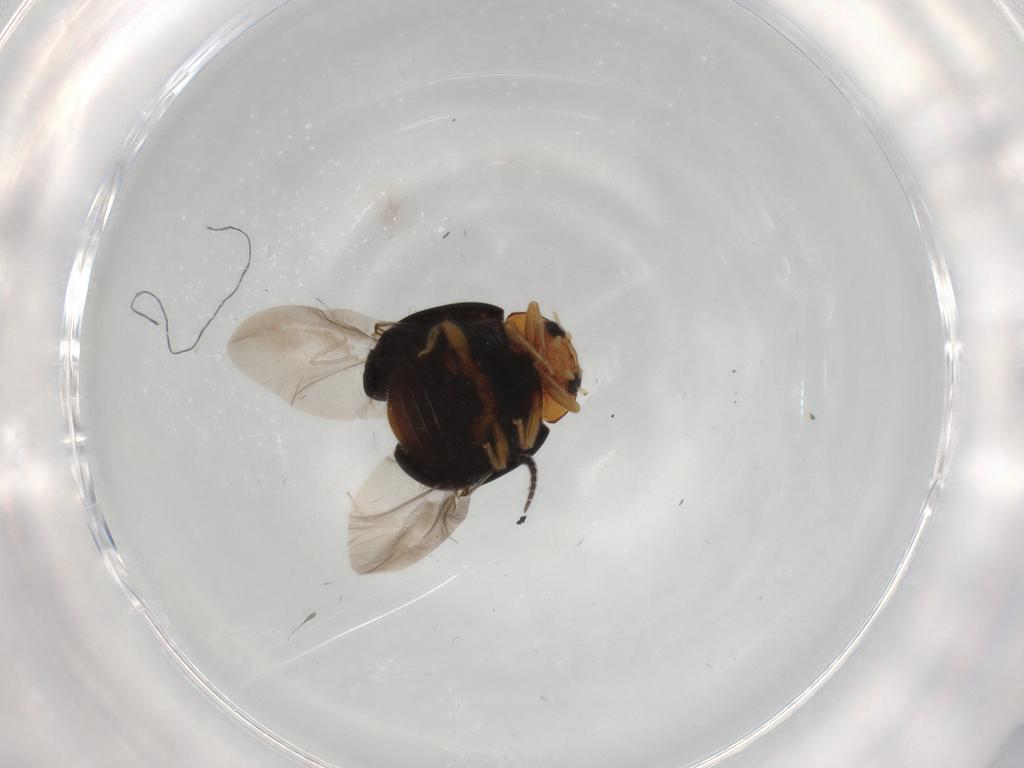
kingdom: Animalia
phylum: Arthropoda
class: Insecta
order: Coleoptera
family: Coccinellidae
